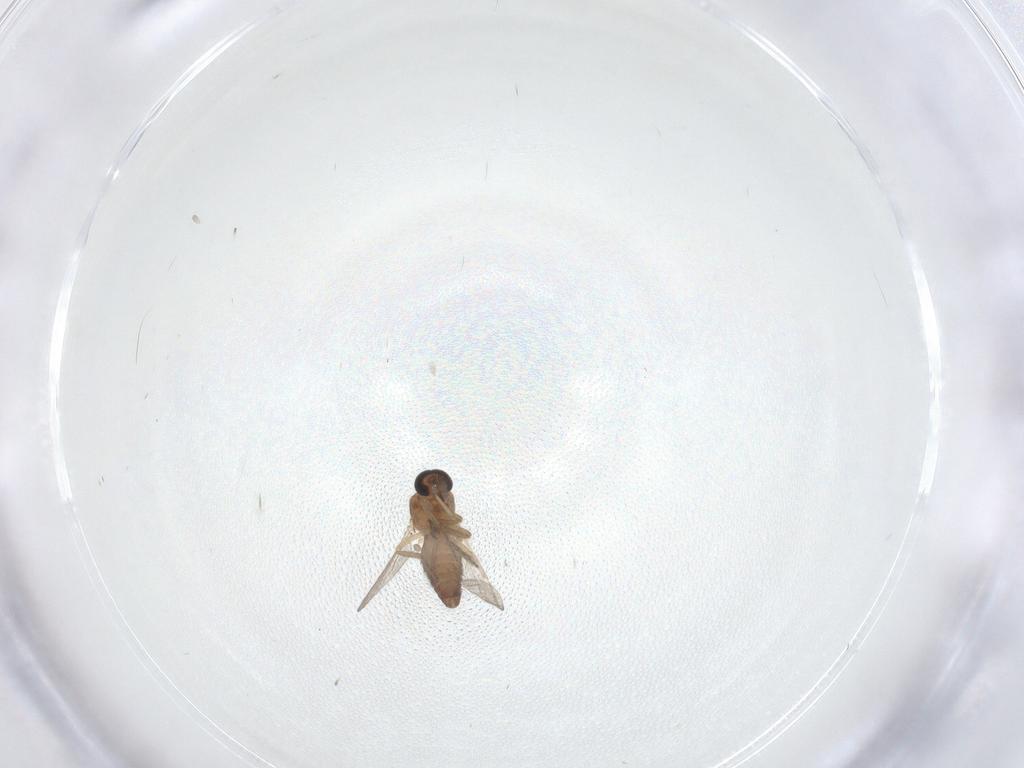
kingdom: Animalia
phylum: Arthropoda
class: Insecta
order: Diptera
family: Ceratopogonidae
